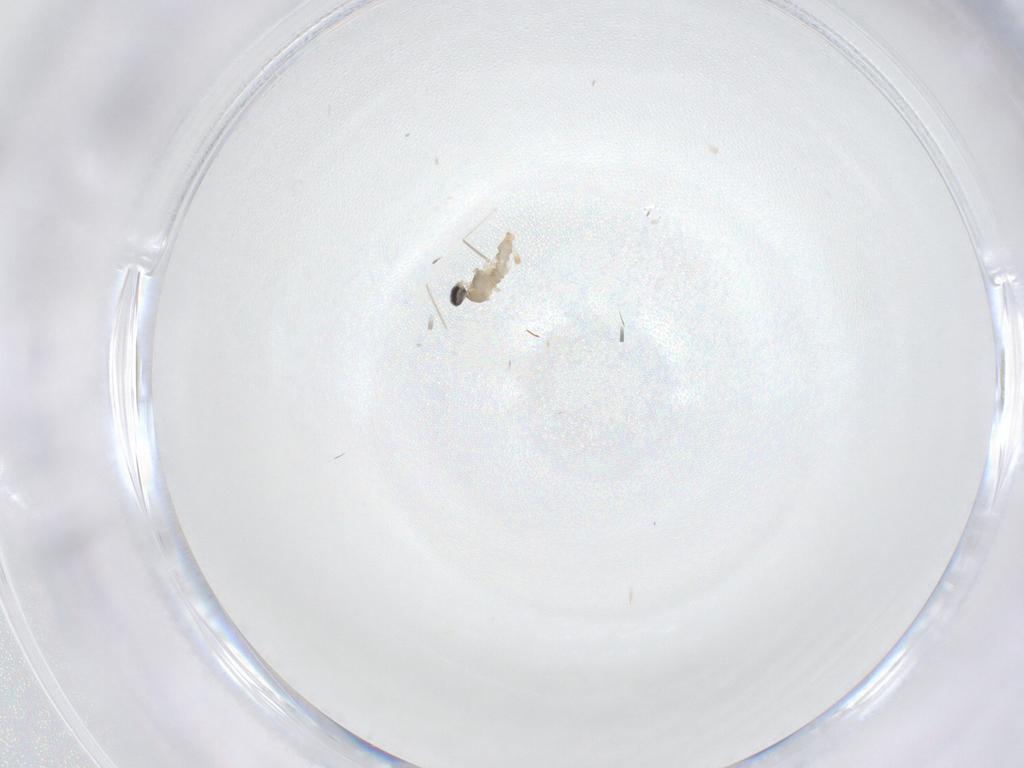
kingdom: Animalia
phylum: Arthropoda
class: Insecta
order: Diptera
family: Cecidomyiidae
